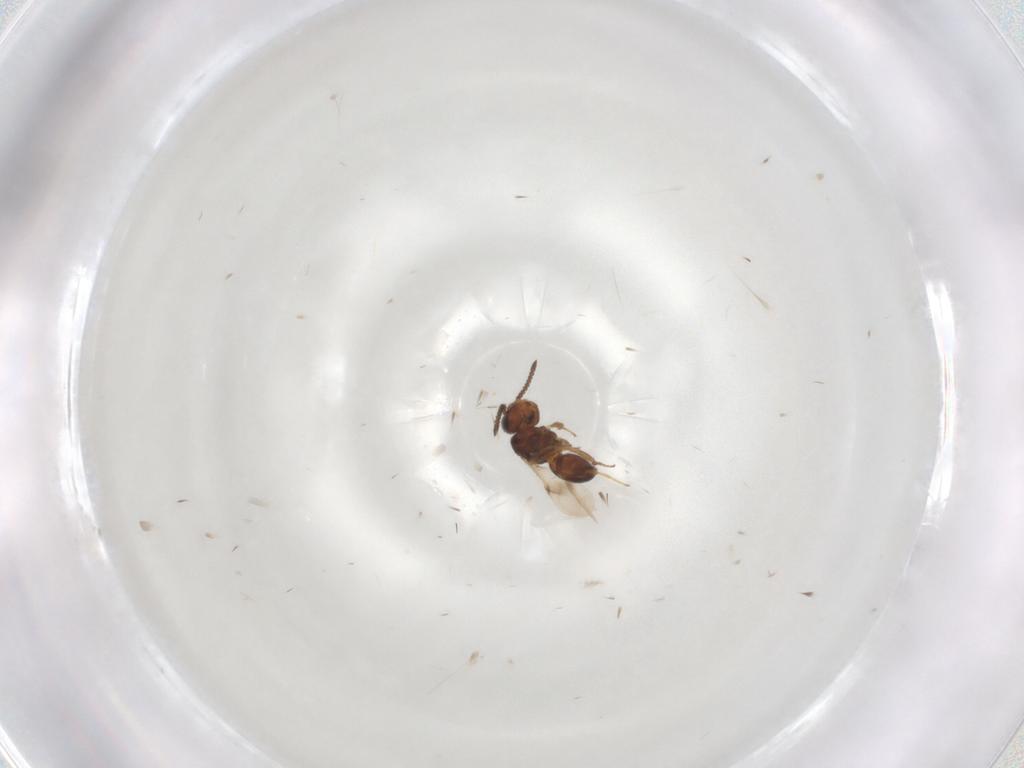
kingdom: Animalia
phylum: Arthropoda
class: Insecta
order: Hymenoptera
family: Scelionidae
